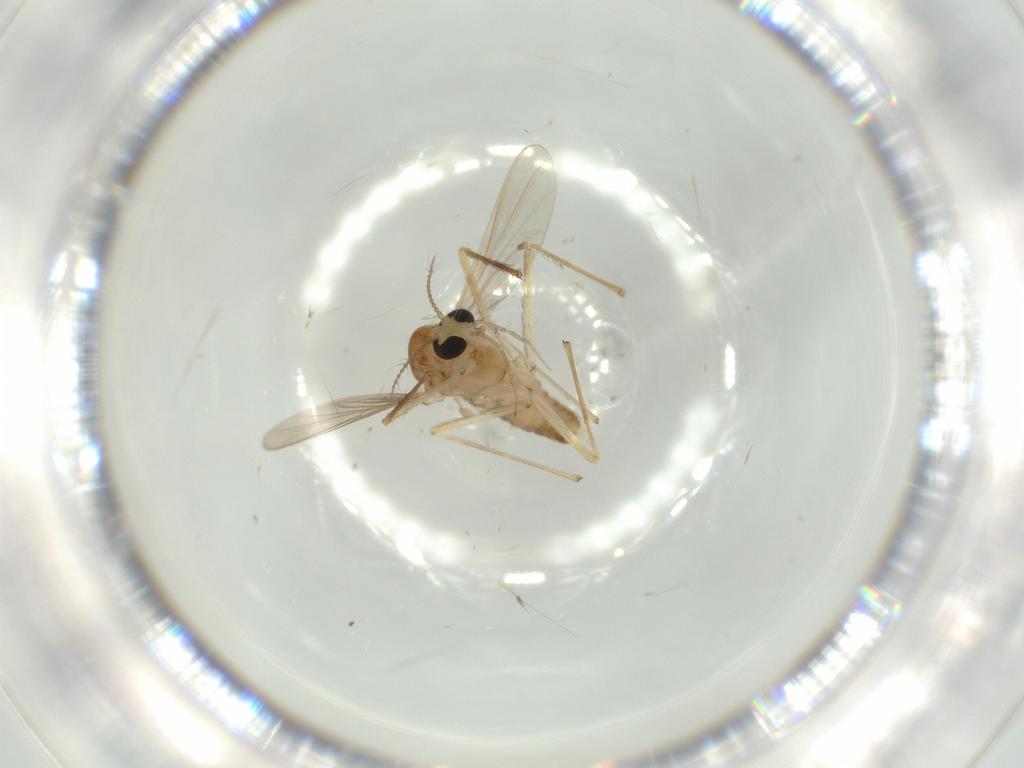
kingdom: Animalia
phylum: Arthropoda
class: Insecta
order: Diptera
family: Chironomidae
